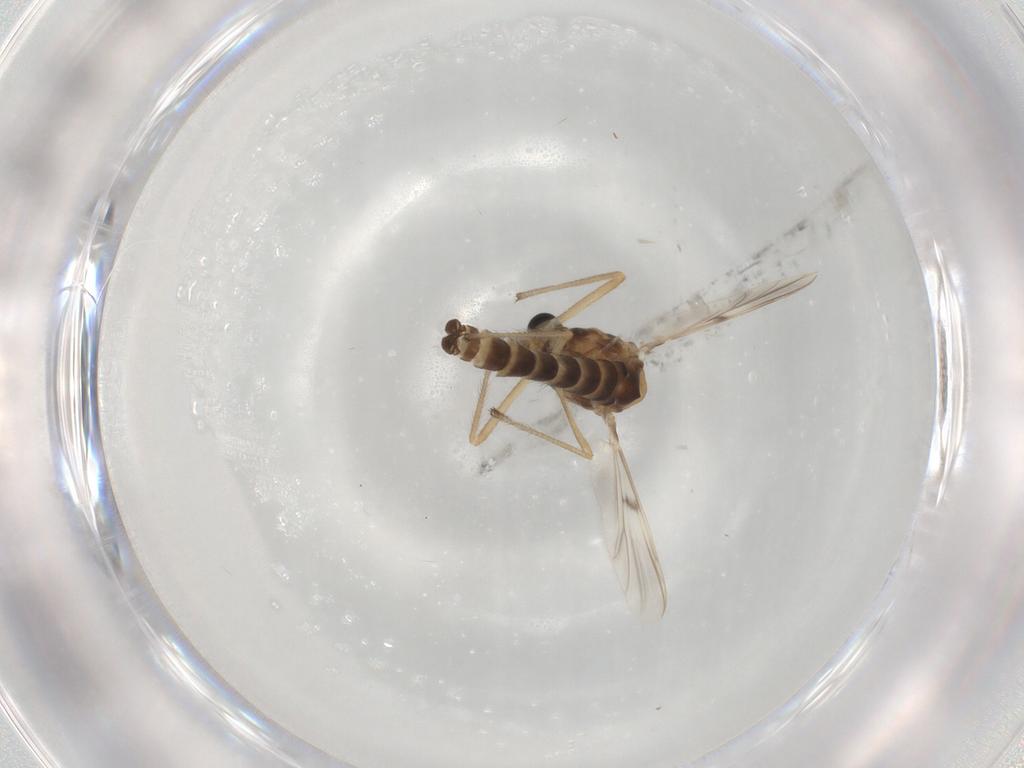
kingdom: Animalia
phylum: Arthropoda
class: Insecta
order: Diptera
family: Chironomidae
